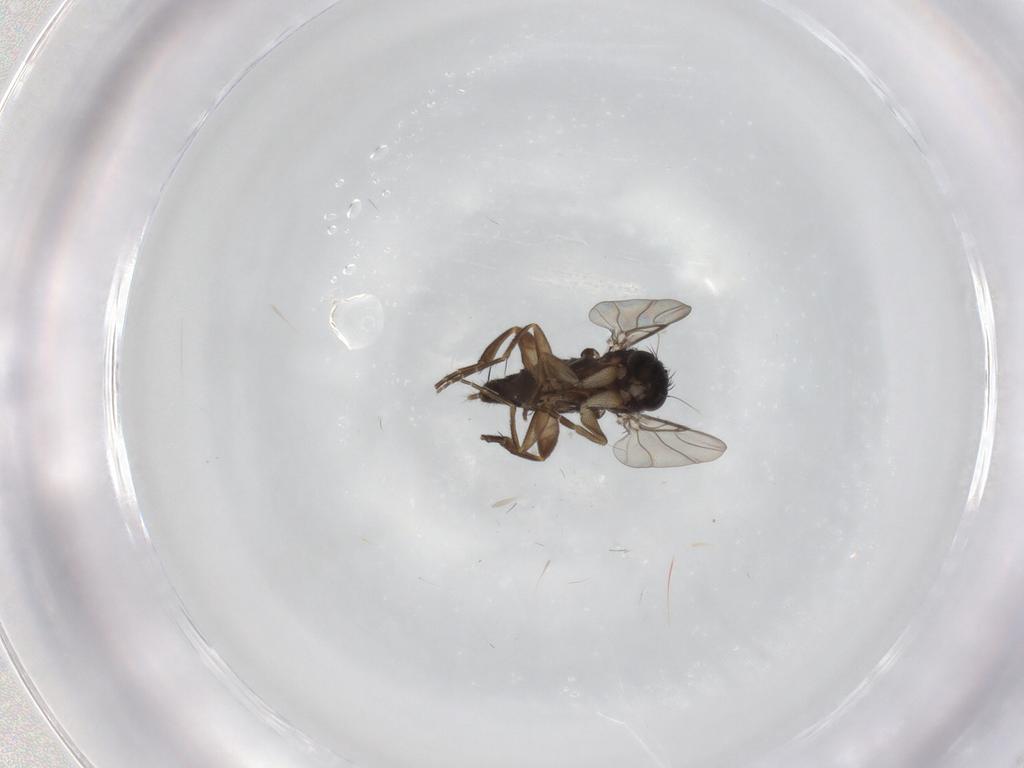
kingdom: Animalia
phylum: Arthropoda
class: Insecta
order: Diptera
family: Phoridae
